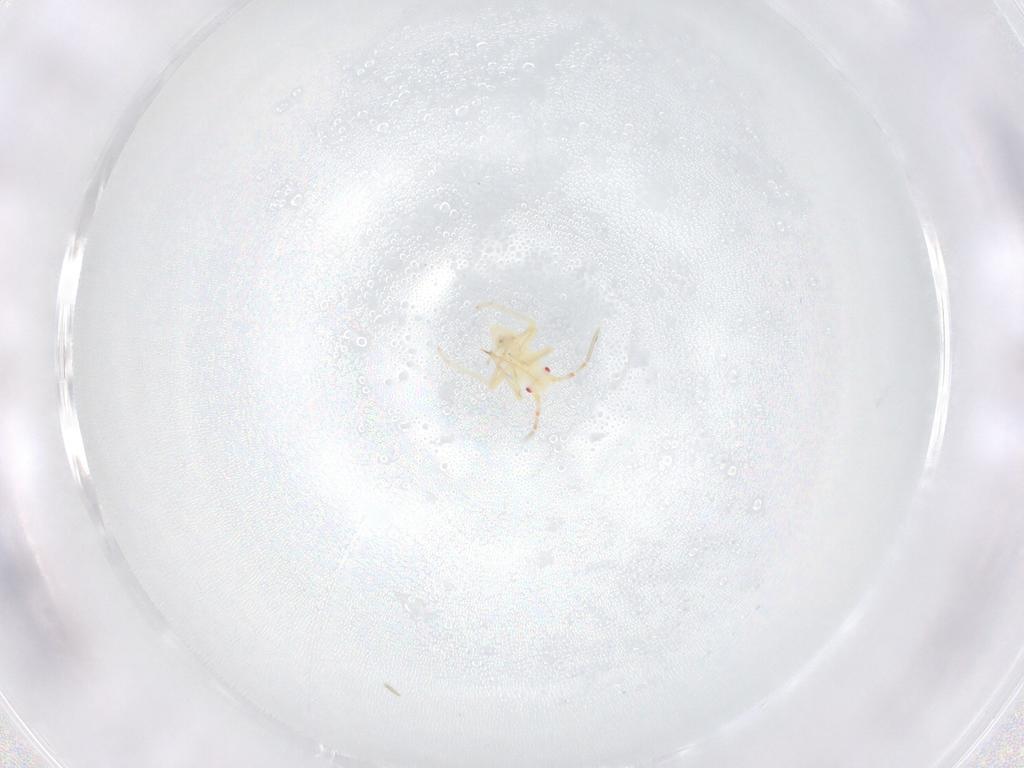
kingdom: Animalia
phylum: Arthropoda
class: Insecta
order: Hemiptera
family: Miridae
